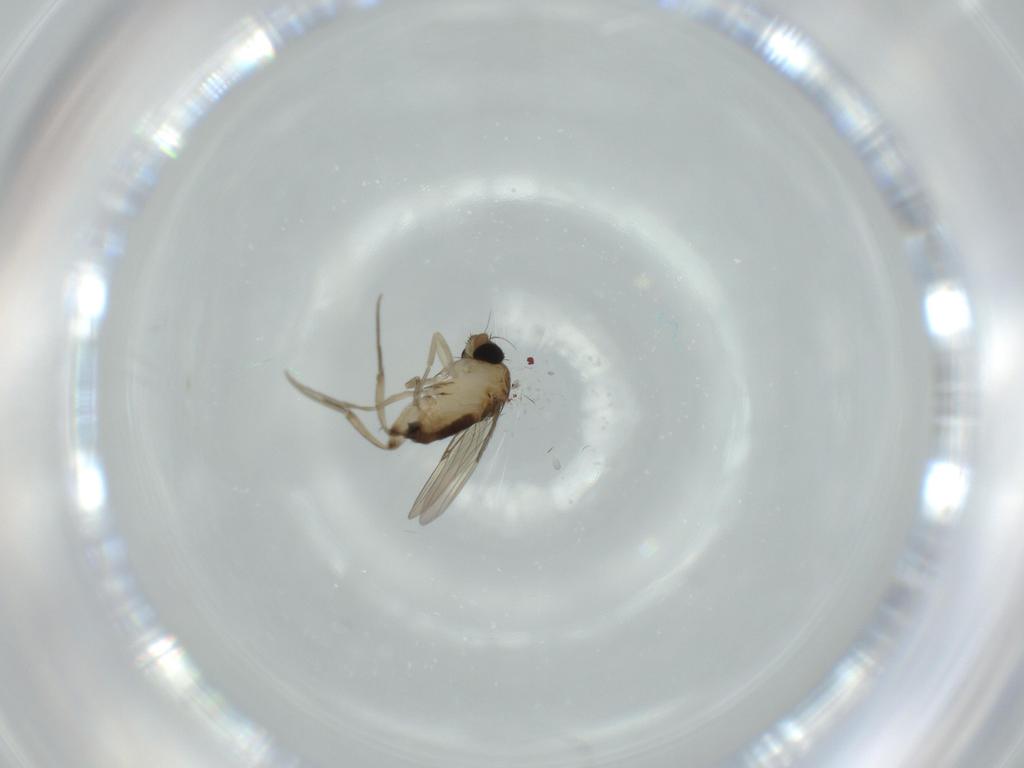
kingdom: Animalia
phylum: Arthropoda
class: Insecta
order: Diptera
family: Phoridae
